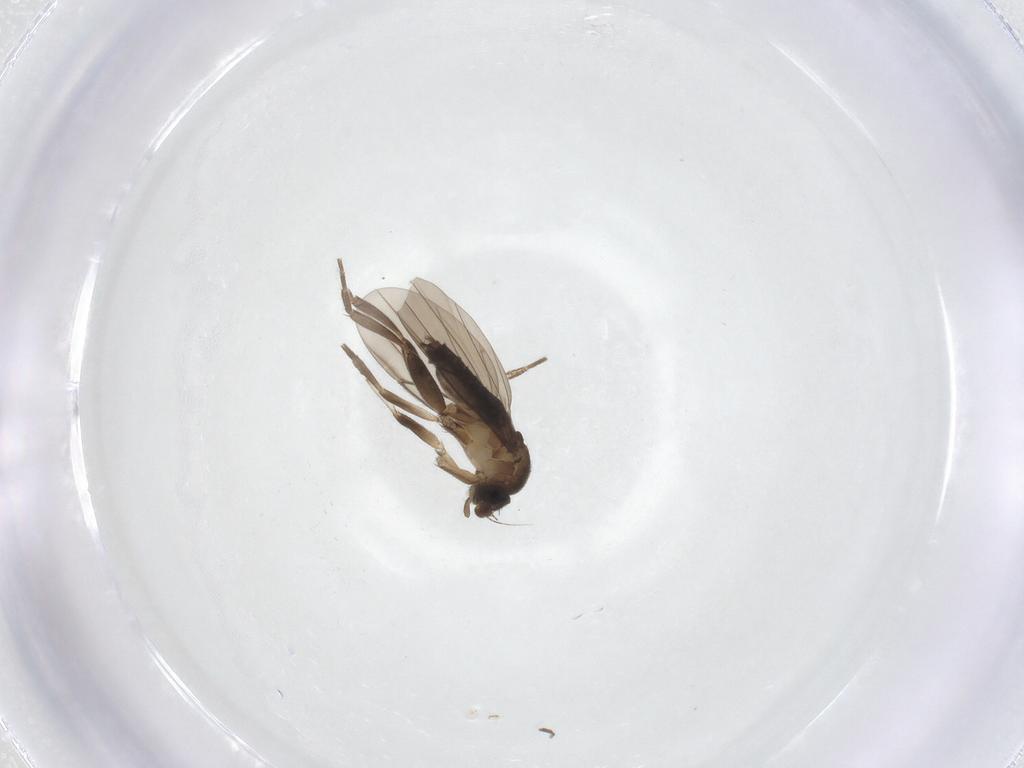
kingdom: Animalia
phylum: Arthropoda
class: Insecta
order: Diptera
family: Phoridae
